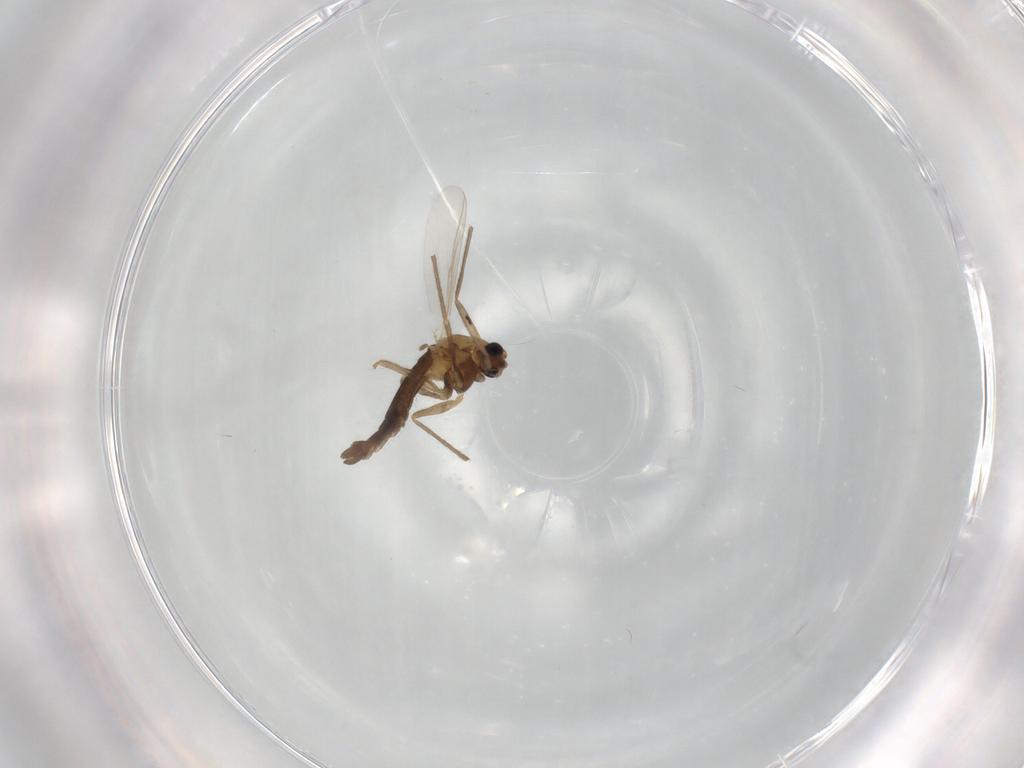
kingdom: Animalia
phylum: Arthropoda
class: Insecta
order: Diptera
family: Chironomidae
